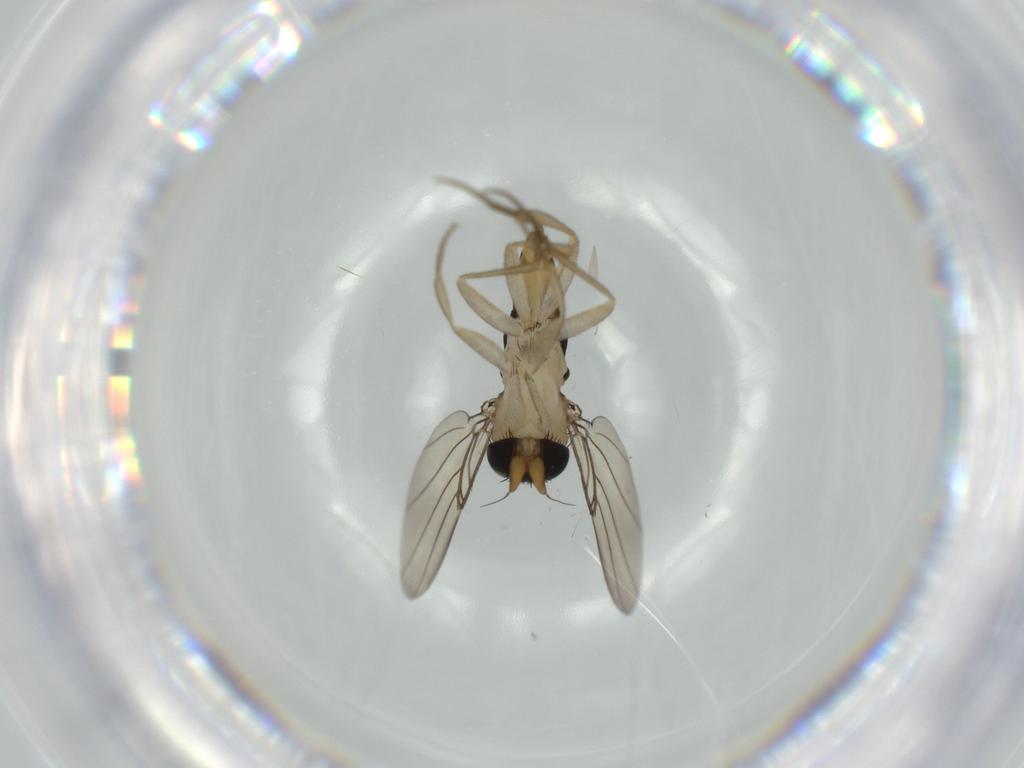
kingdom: Animalia
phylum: Arthropoda
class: Insecta
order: Diptera
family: Phoridae
